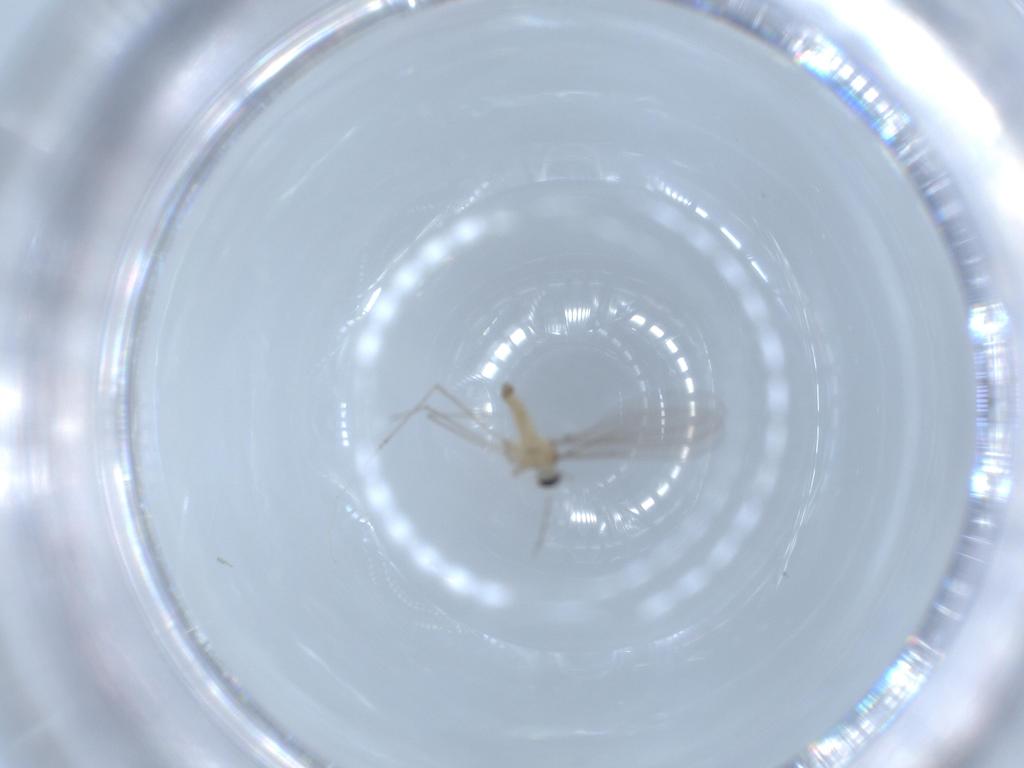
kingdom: Animalia
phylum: Arthropoda
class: Insecta
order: Diptera
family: Cecidomyiidae
